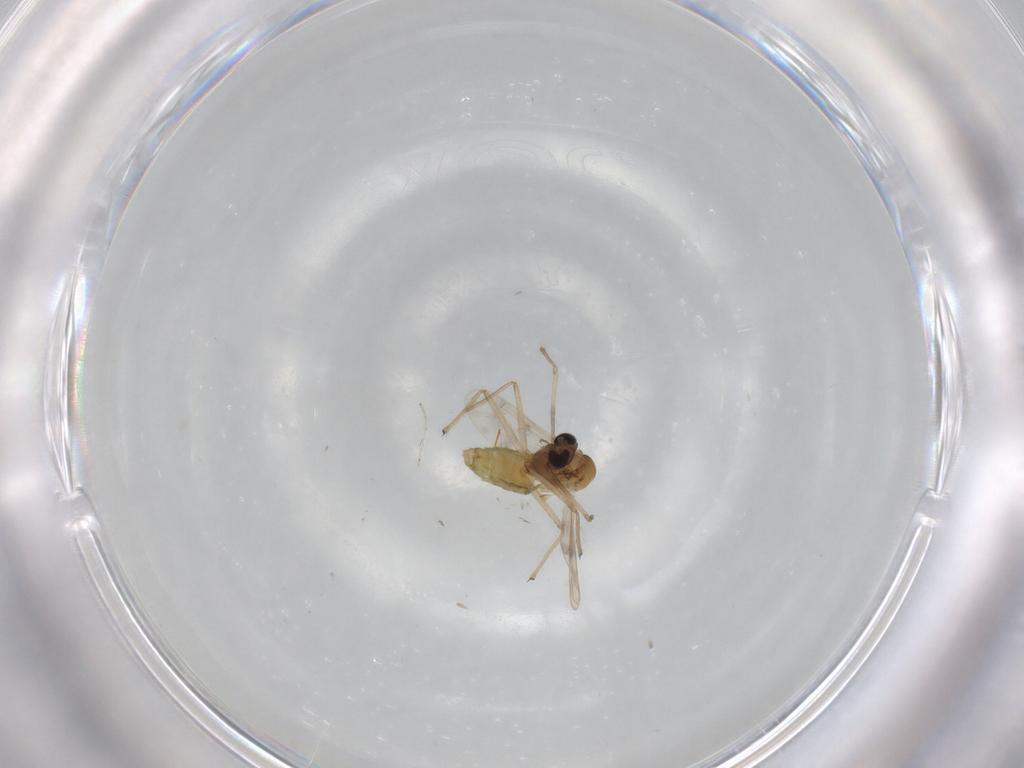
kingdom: Animalia
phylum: Arthropoda
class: Insecta
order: Diptera
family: Chironomidae
